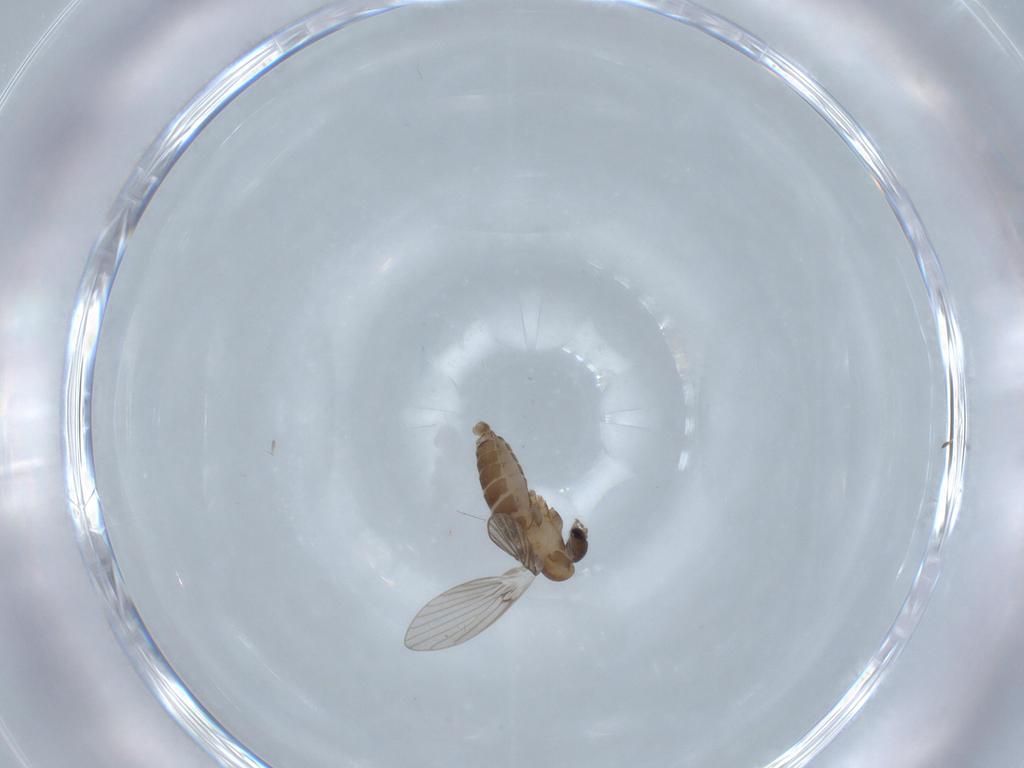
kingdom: Animalia
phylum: Arthropoda
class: Insecta
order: Diptera
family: Psychodidae
